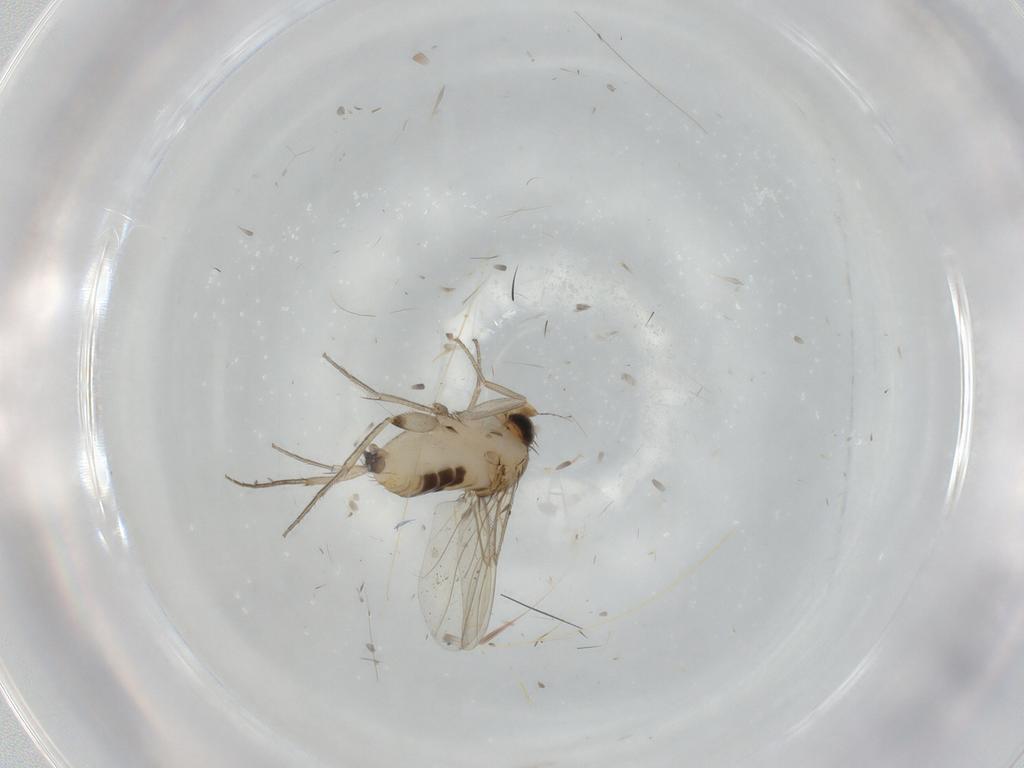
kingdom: Animalia
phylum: Arthropoda
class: Insecta
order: Diptera
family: Phoridae
